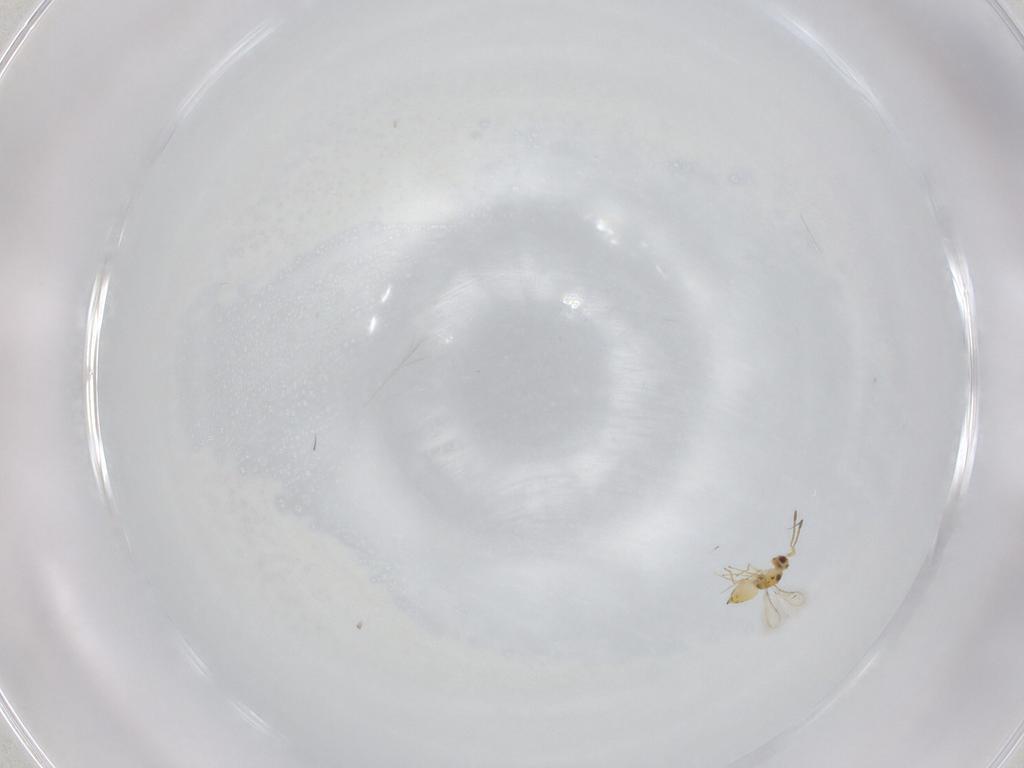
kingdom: Animalia
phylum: Arthropoda
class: Insecta
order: Hymenoptera
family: Mymaridae
